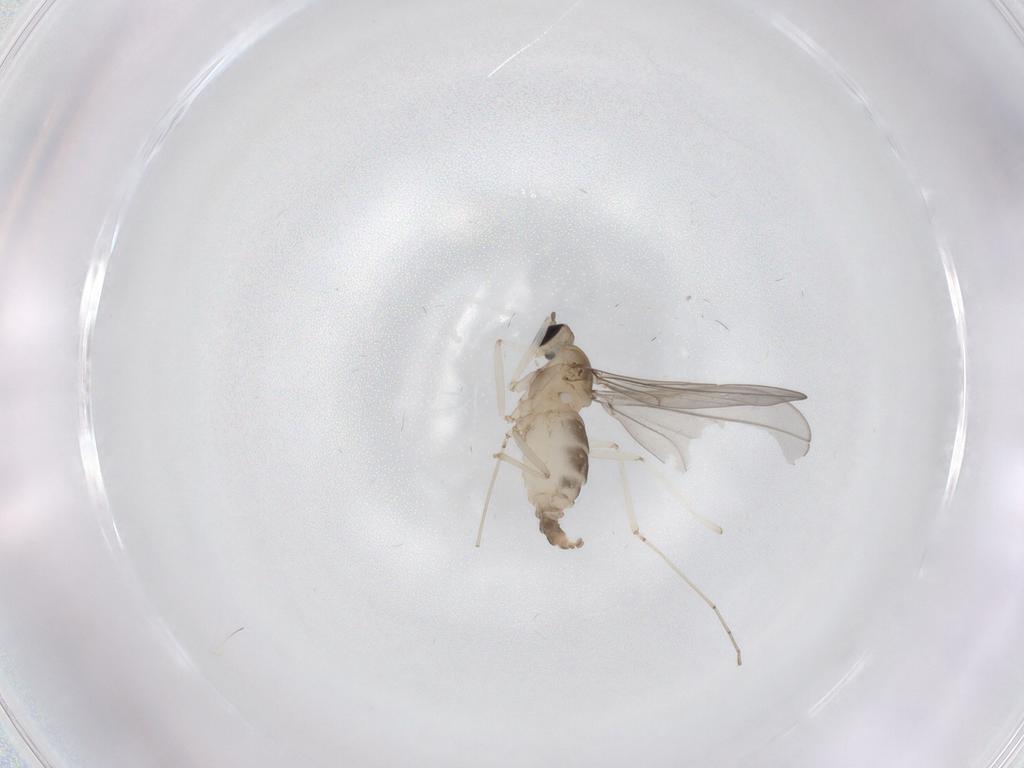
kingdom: Animalia
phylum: Arthropoda
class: Insecta
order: Diptera
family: Cecidomyiidae
